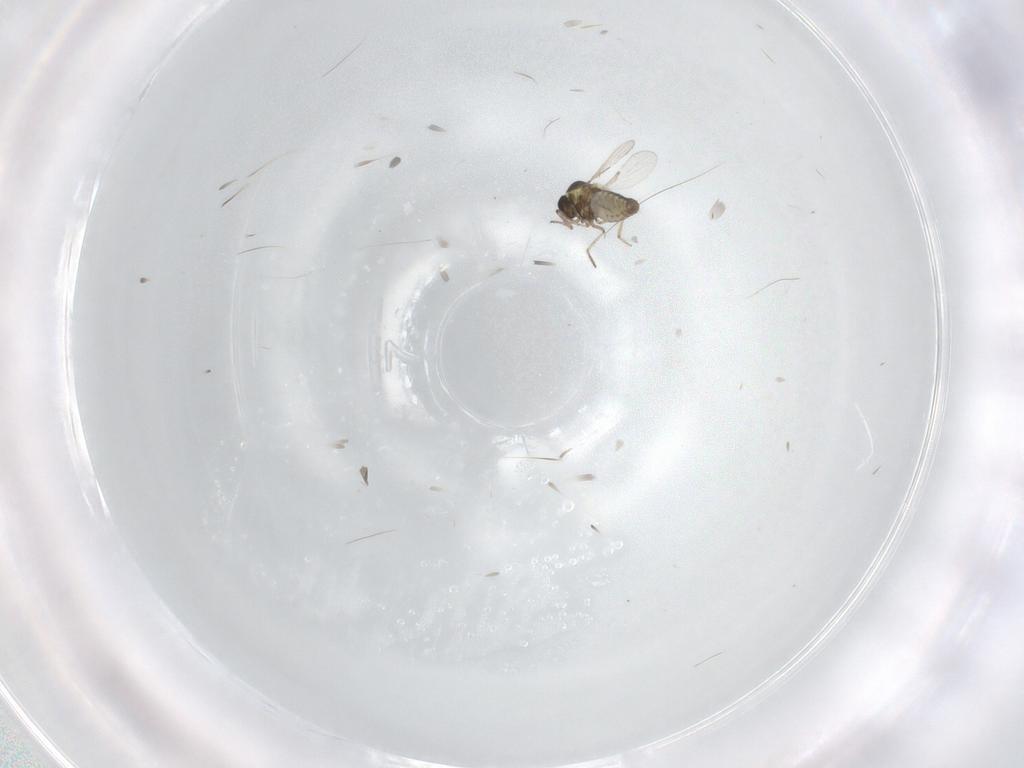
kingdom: Animalia
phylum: Arthropoda
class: Insecta
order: Diptera
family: Ceratopogonidae
